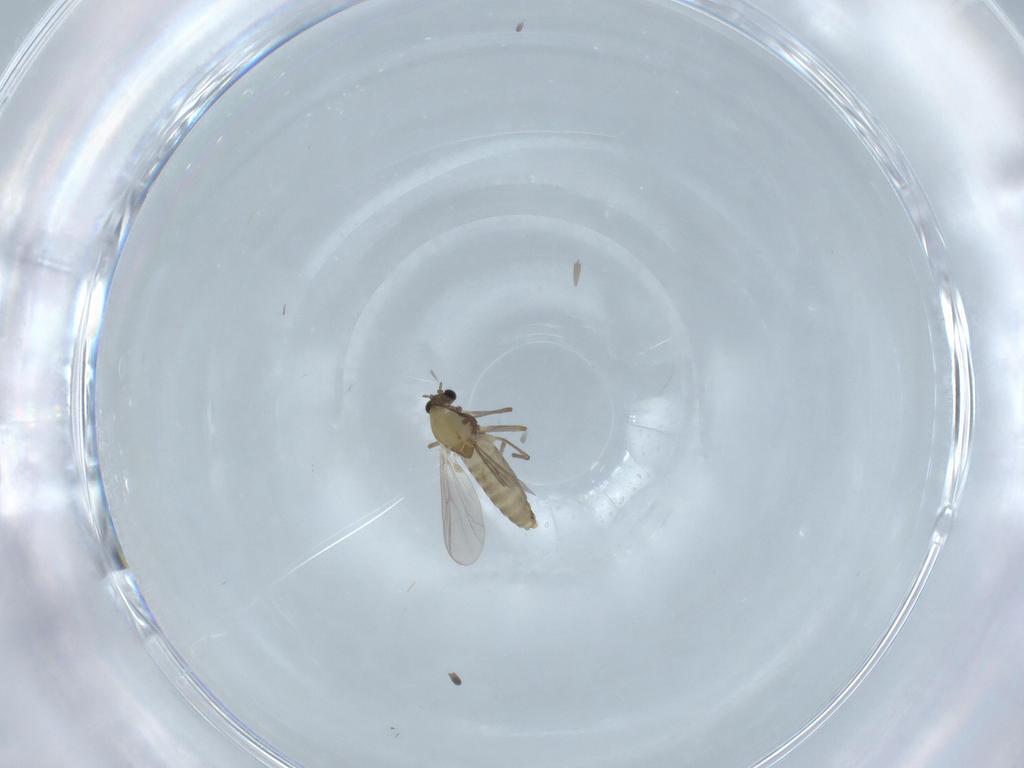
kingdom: Animalia
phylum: Arthropoda
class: Insecta
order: Diptera
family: Chironomidae
